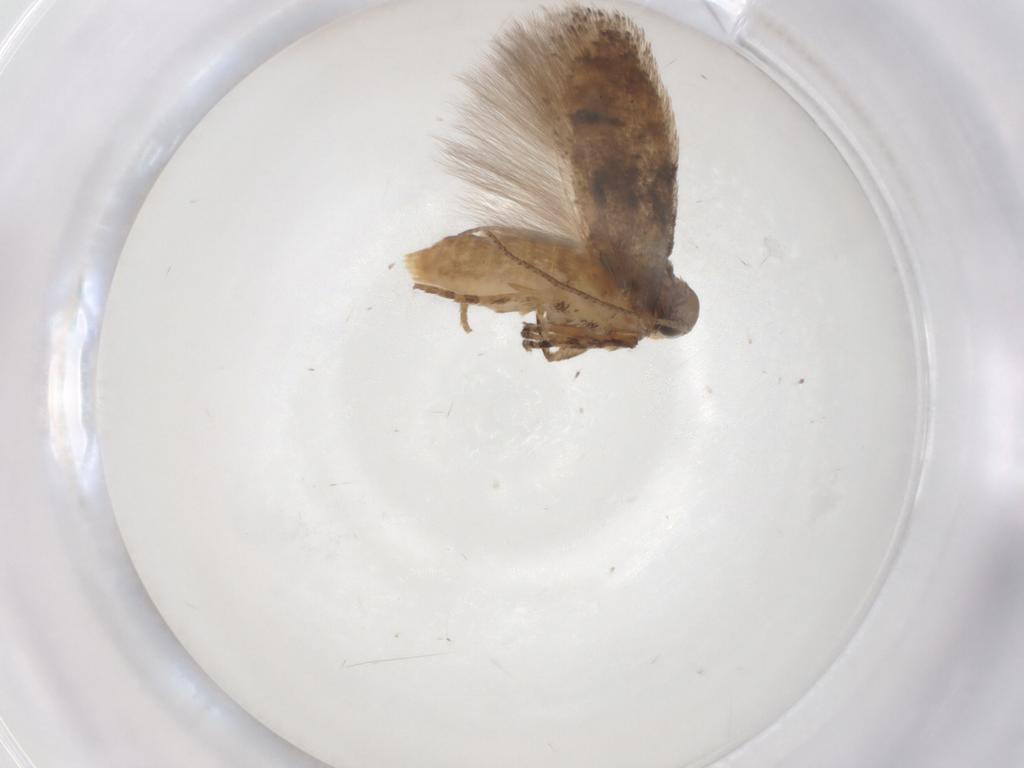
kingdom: Animalia
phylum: Arthropoda
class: Insecta
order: Lepidoptera
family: Gelechiidae
